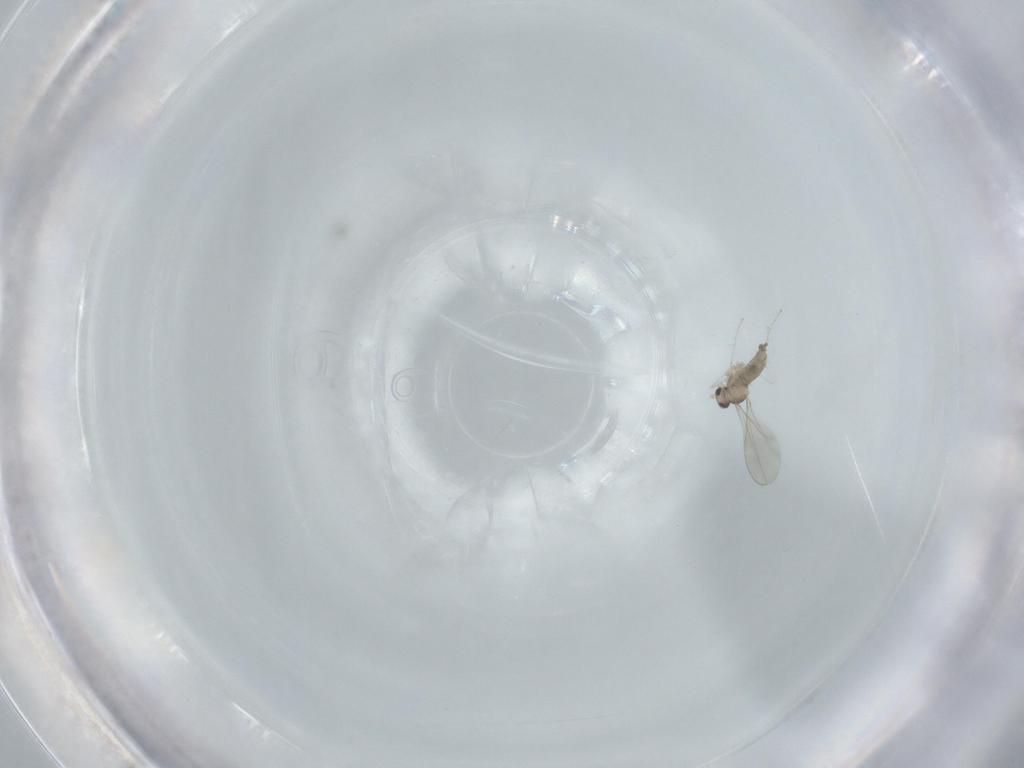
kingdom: Animalia
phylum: Arthropoda
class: Insecta
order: Diptera
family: Cecidomyiidae
